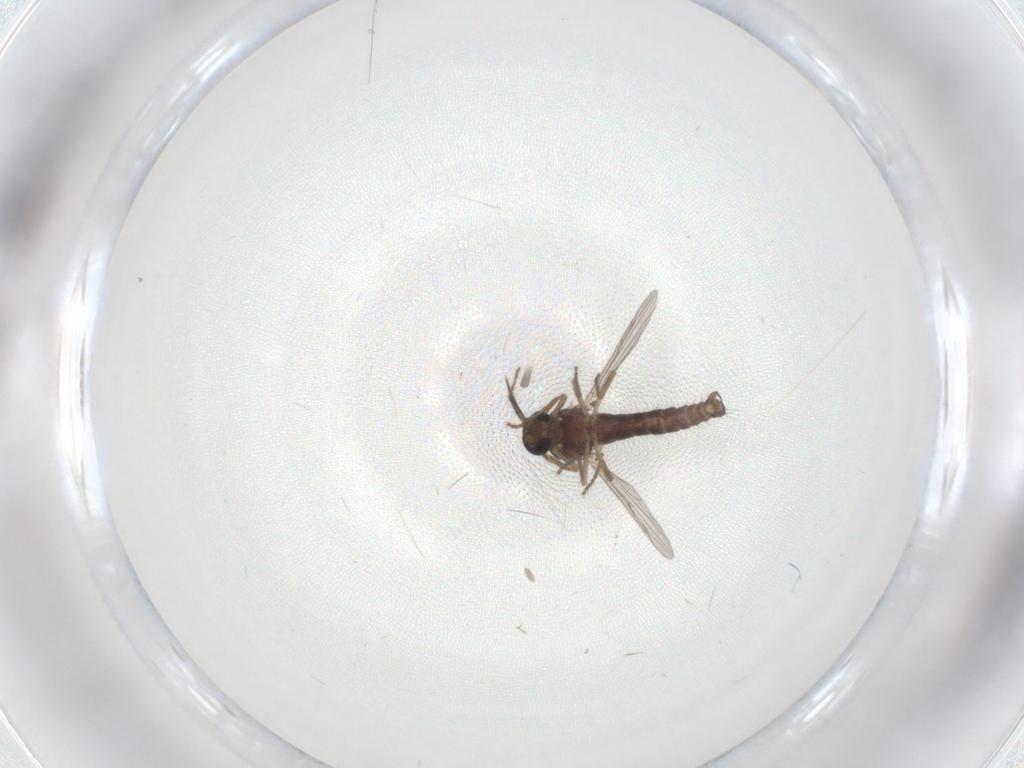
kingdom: Animalia
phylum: Arthropoda
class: Insecta
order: Diptera
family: Ceratopogonidae
